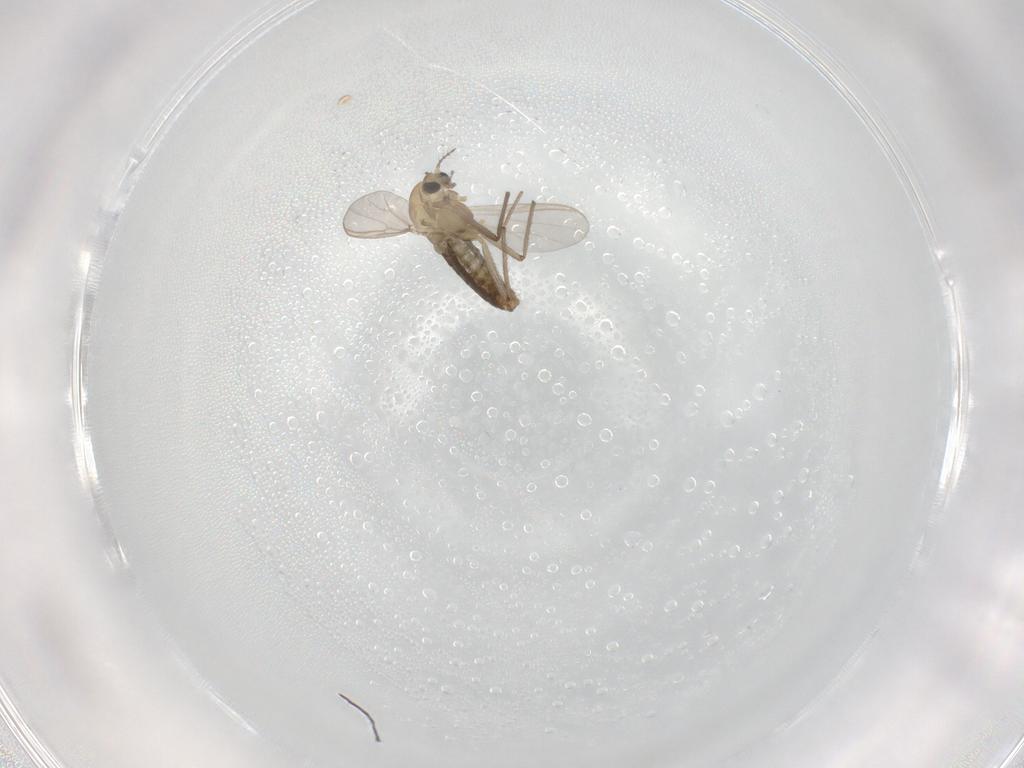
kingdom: Animalia
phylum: Arthropoda
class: Insecta
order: Diptera
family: Chironomidae
